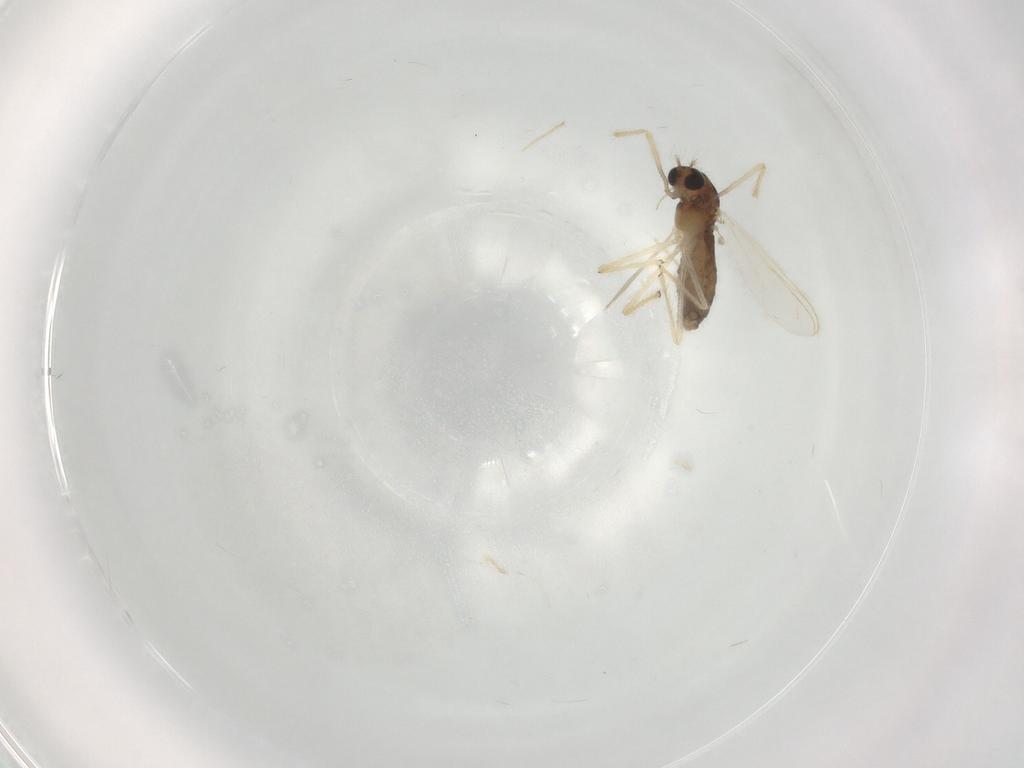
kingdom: Animalia
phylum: Arthropoda
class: Insecta
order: Diptera
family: Chironomidae
